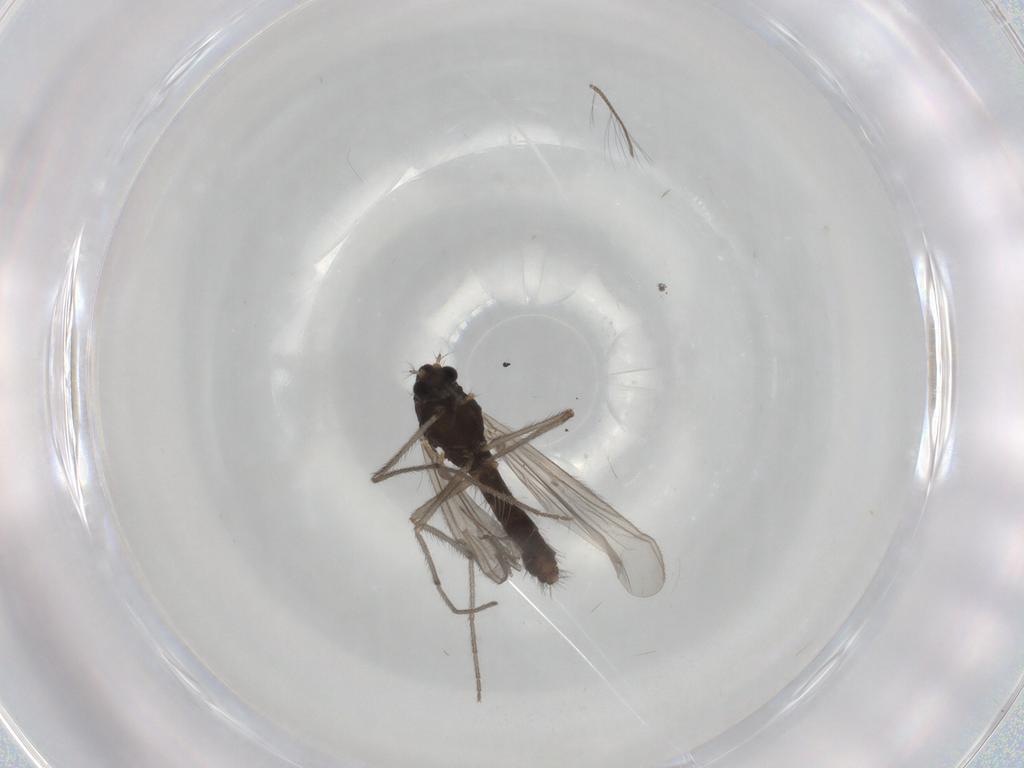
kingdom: Animalia
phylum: Arthropoda
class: Insecta
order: Diptera
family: Chironomidae
